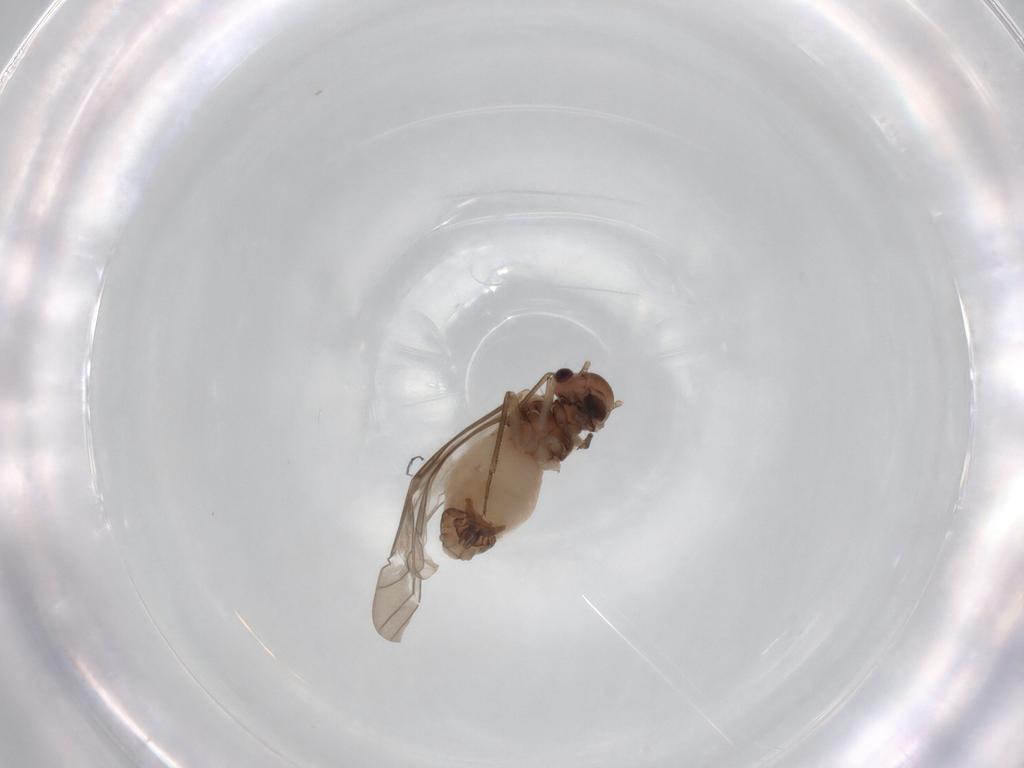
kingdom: Animalia
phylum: Arthropoda
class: Insecta
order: Psocodea
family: Peripsocidae
